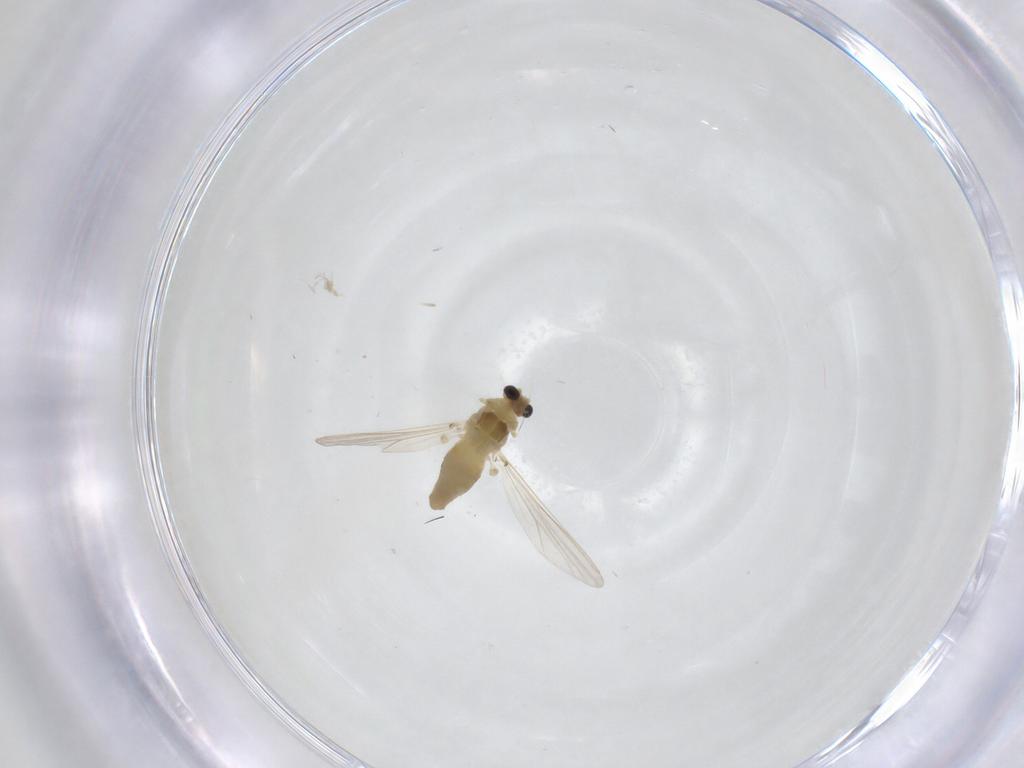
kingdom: Animalia
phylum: Arthropoda
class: Insecta
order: Diptera
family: Chironomidae
